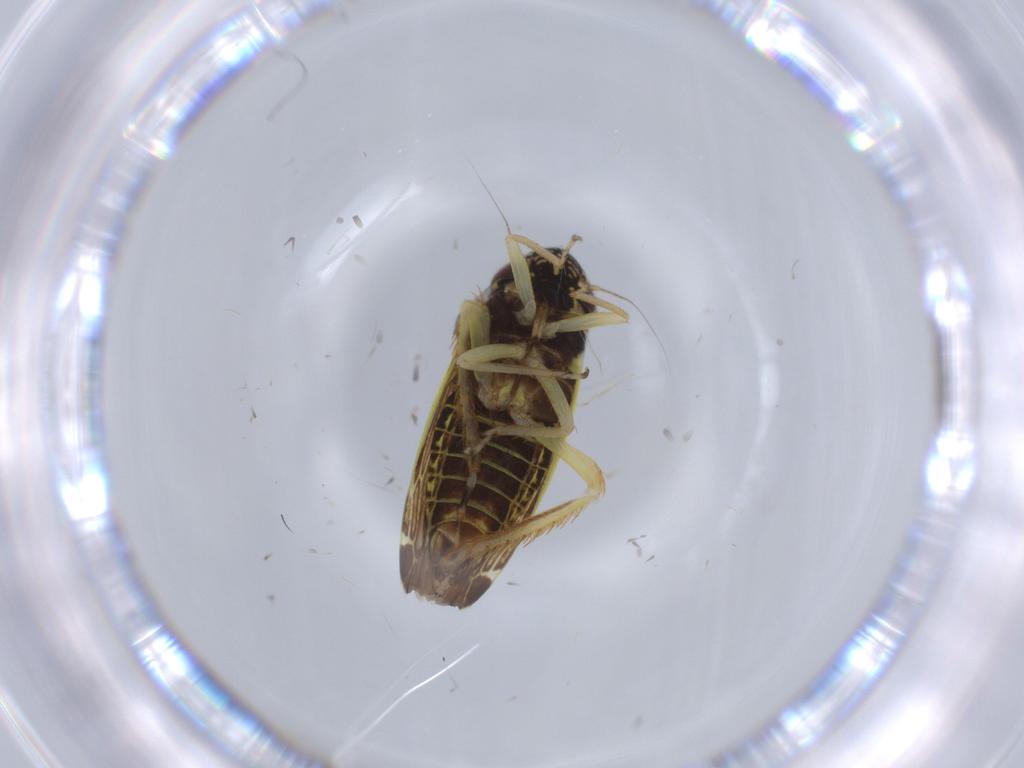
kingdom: Animalia
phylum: Arthropoda
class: Insecta
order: Hemiptera
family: Cicadellidae
